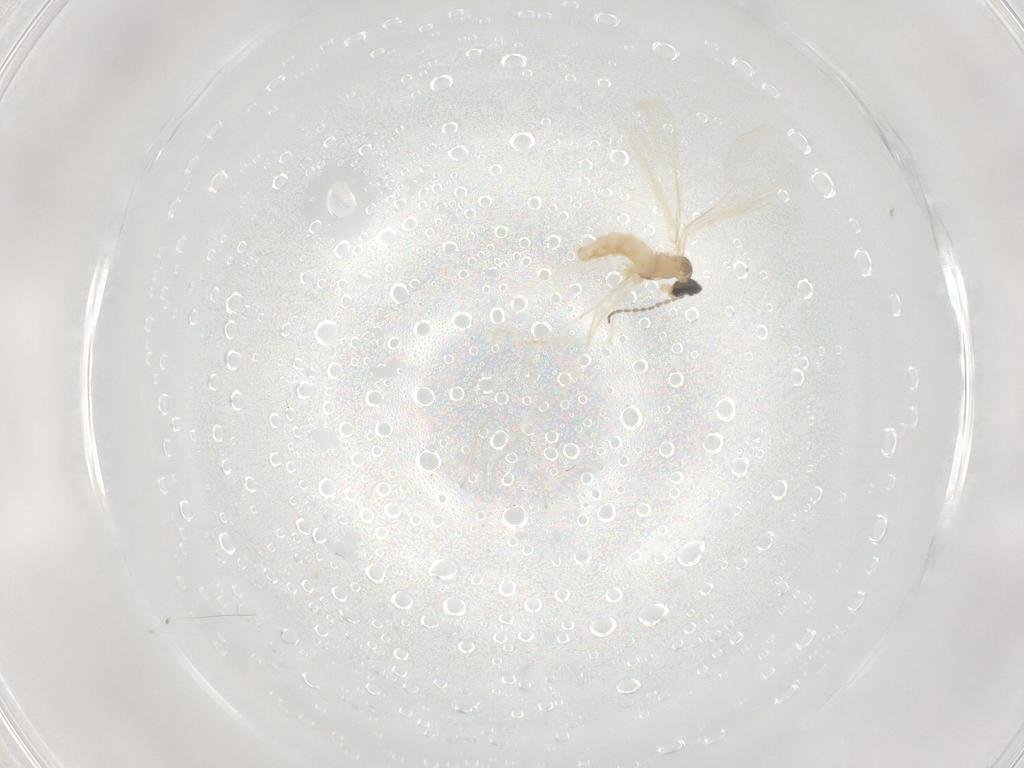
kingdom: Animalia
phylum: Arthropoda
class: Insecta
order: Diptera
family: Cecidomyiidae
